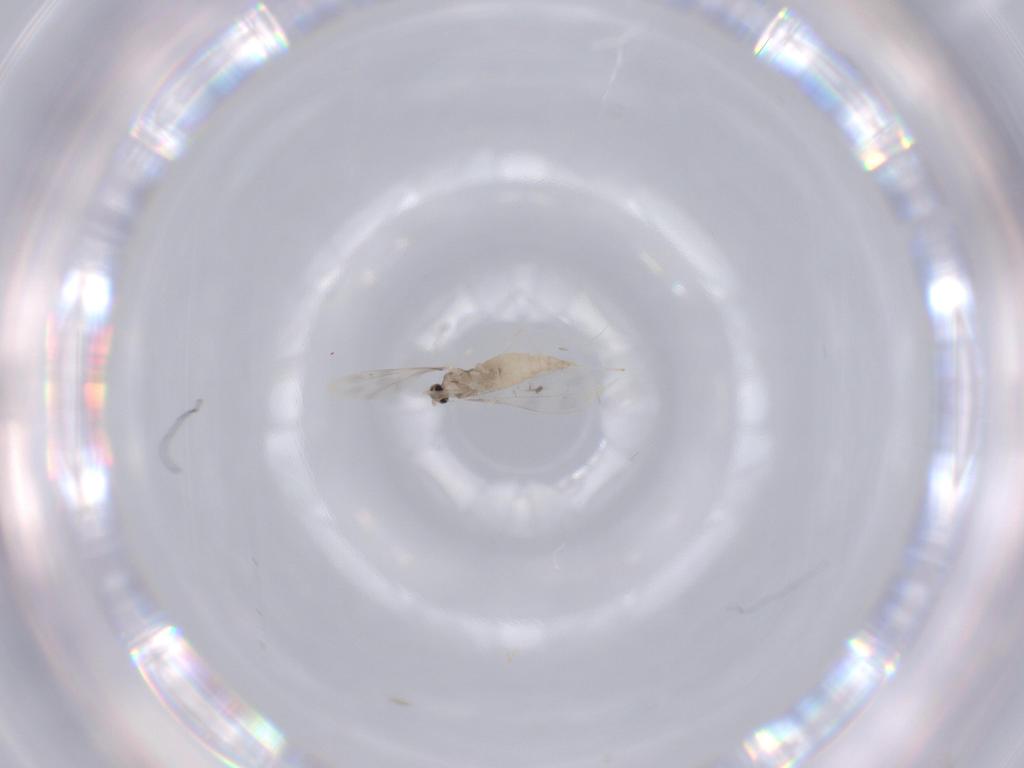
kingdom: Animalia
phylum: Arthropoda
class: Insecta
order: Diptera
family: Cecidomyiidae
